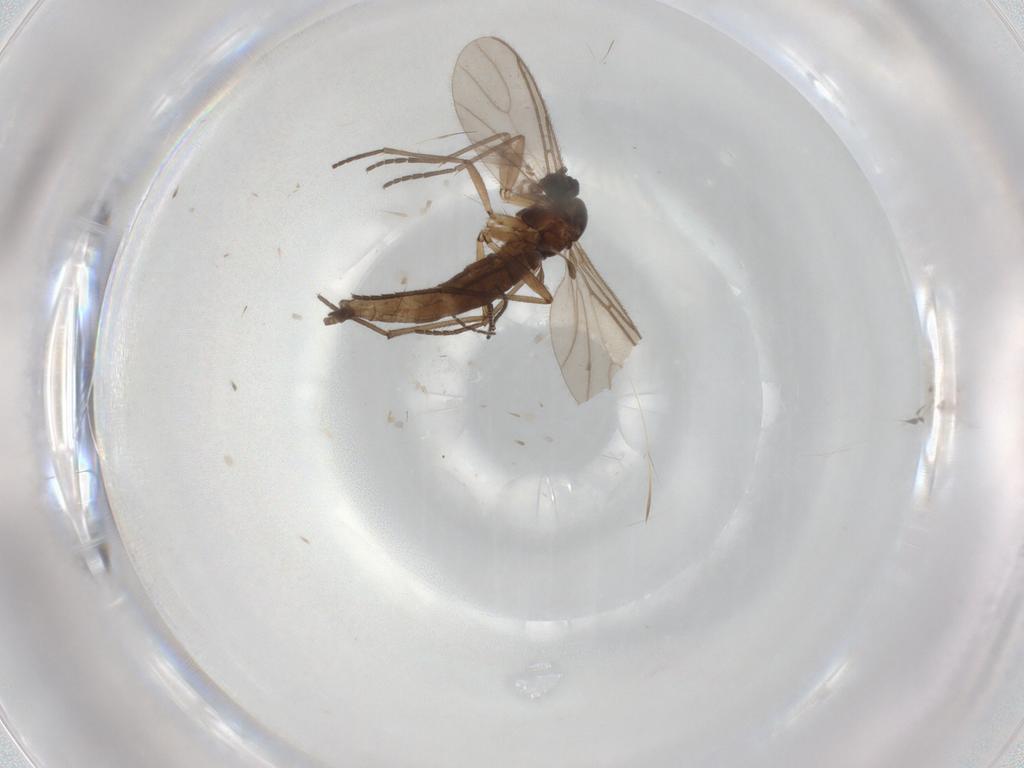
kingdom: Animalia
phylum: Arthropoda
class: Insecta
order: Diptera
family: Sciaridae
